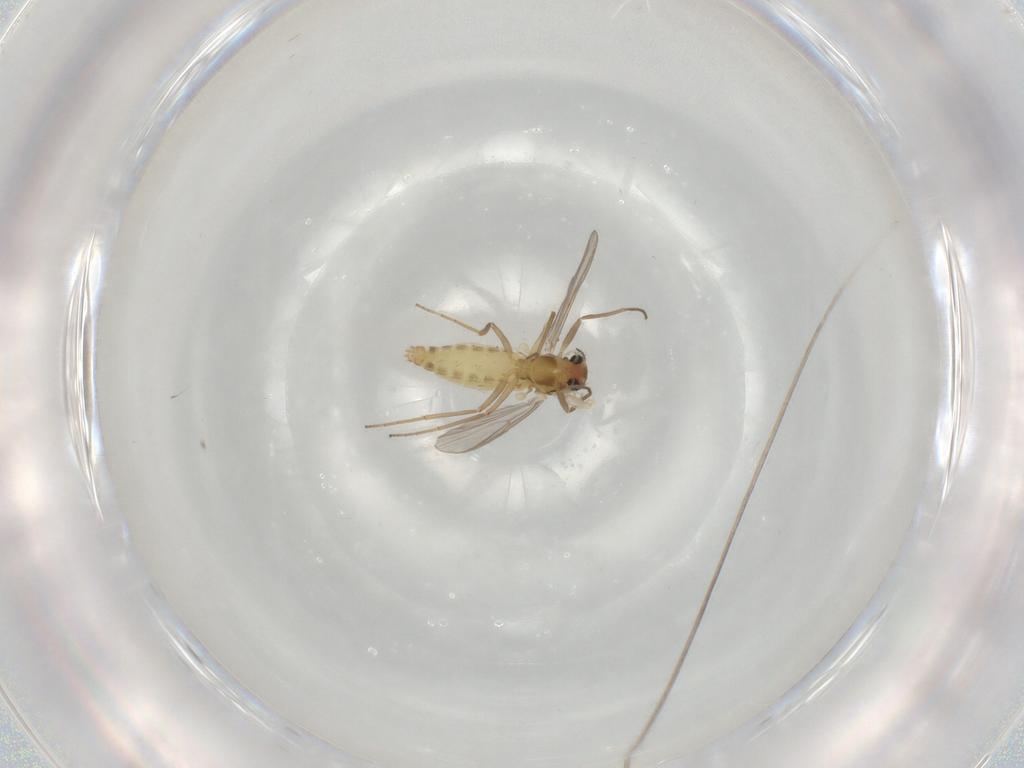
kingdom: Animalia
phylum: Arthropoda
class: Insecta
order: Diptera
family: Chironomidae
